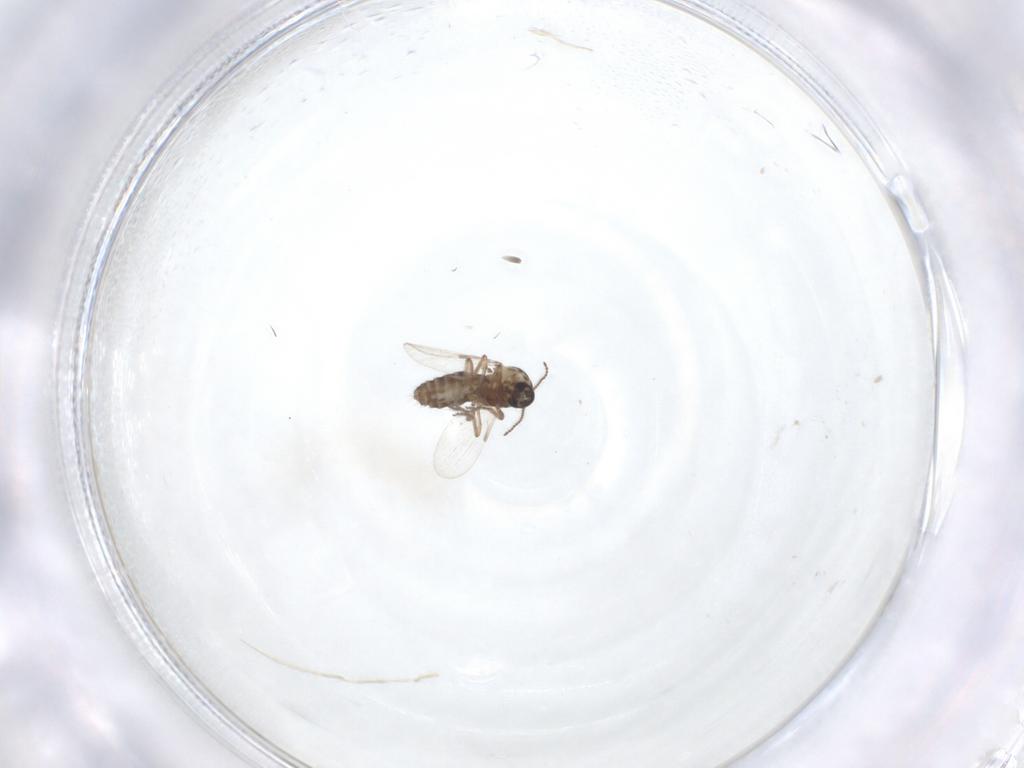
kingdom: Animalia
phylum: Arthropoda
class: Insecta
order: Diptera
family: Ceratopogonidae
